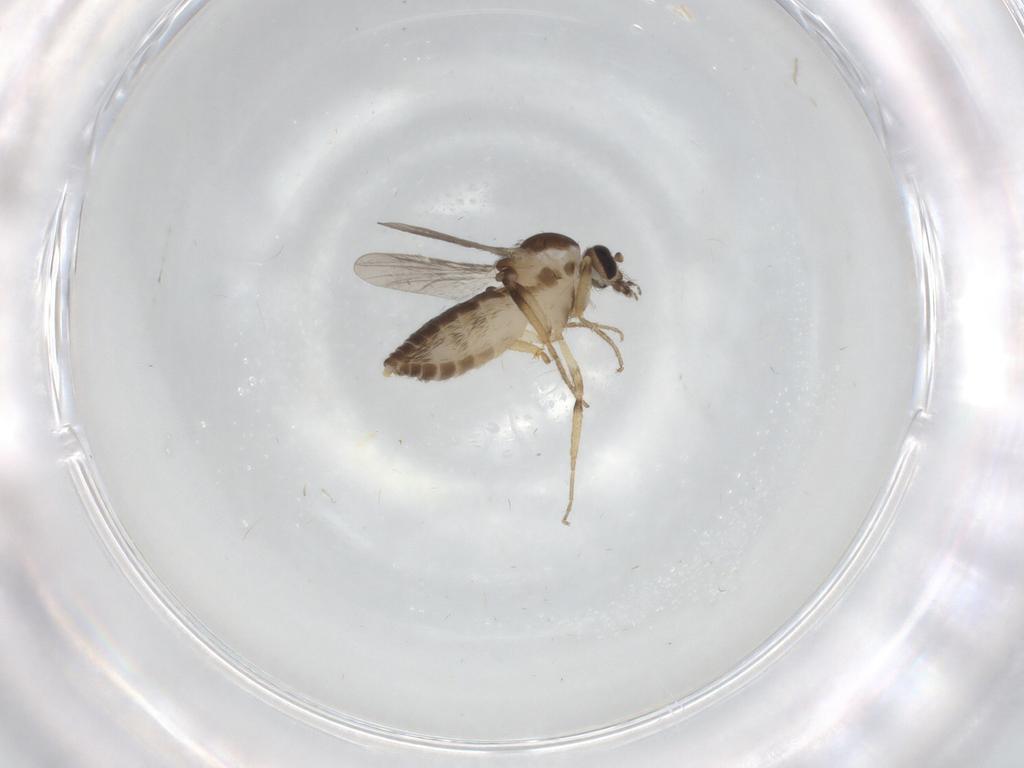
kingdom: Animalia
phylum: Arthropoda
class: Insecta
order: Diptera
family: Ceratopogonidae
